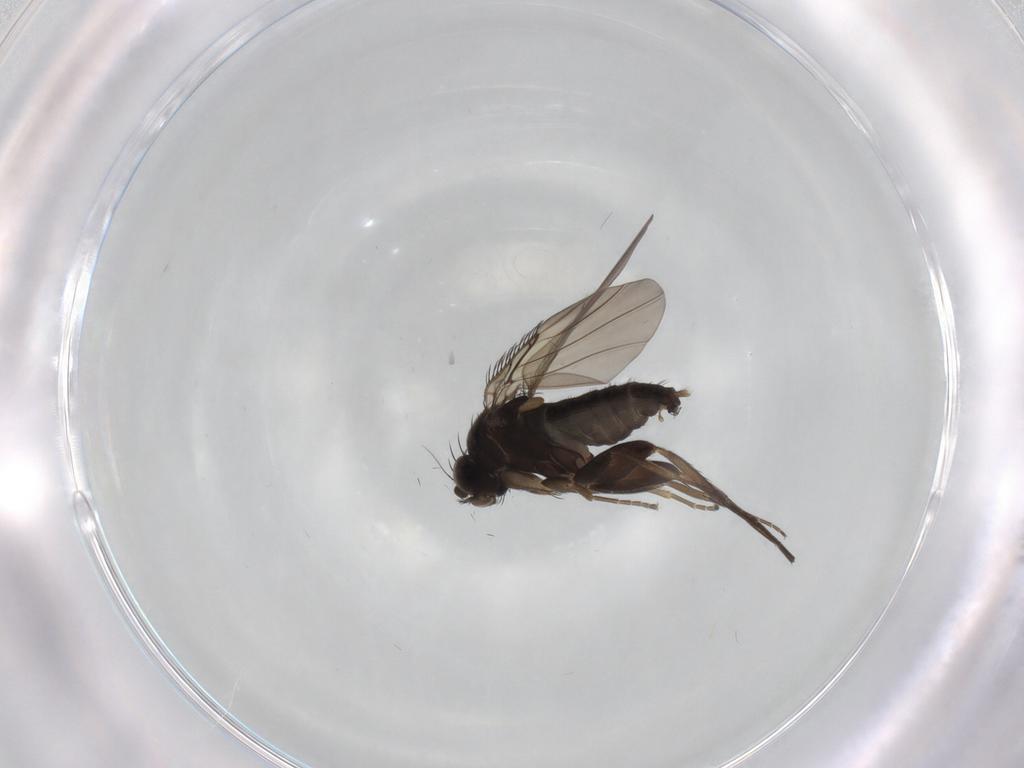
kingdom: Animalia
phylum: Arthropoda
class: Insecta
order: Diptera
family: Phoridae
